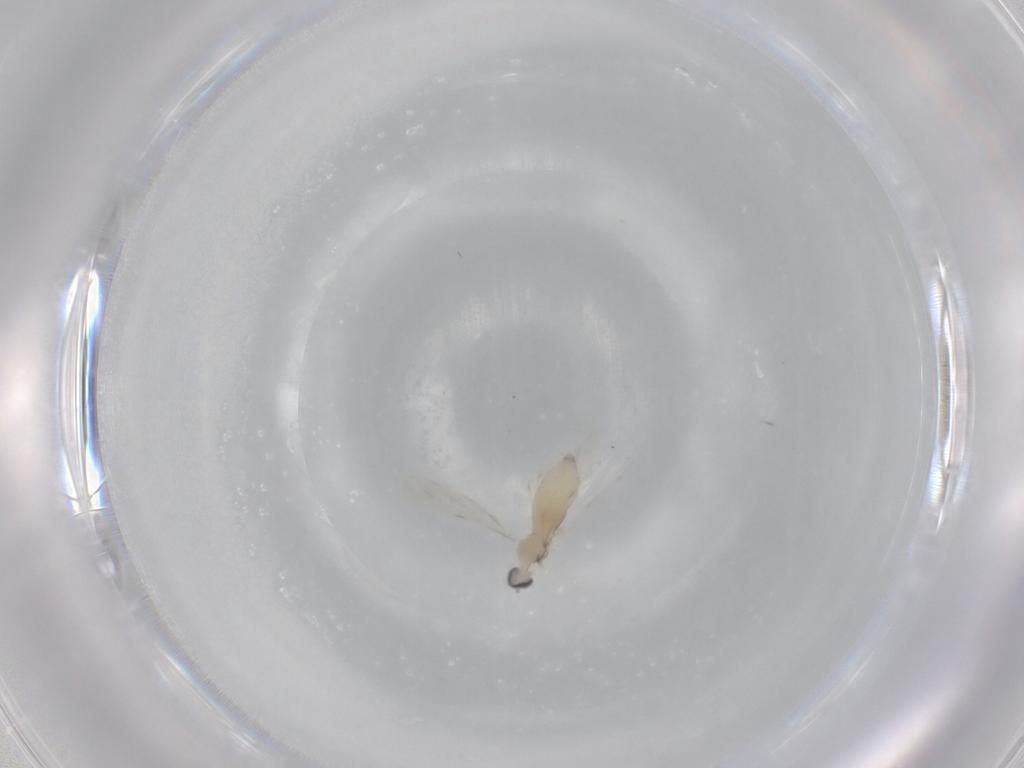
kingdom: Animalia
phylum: Arthropoda
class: Insecta
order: Diptera
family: Cecidomyiidae
